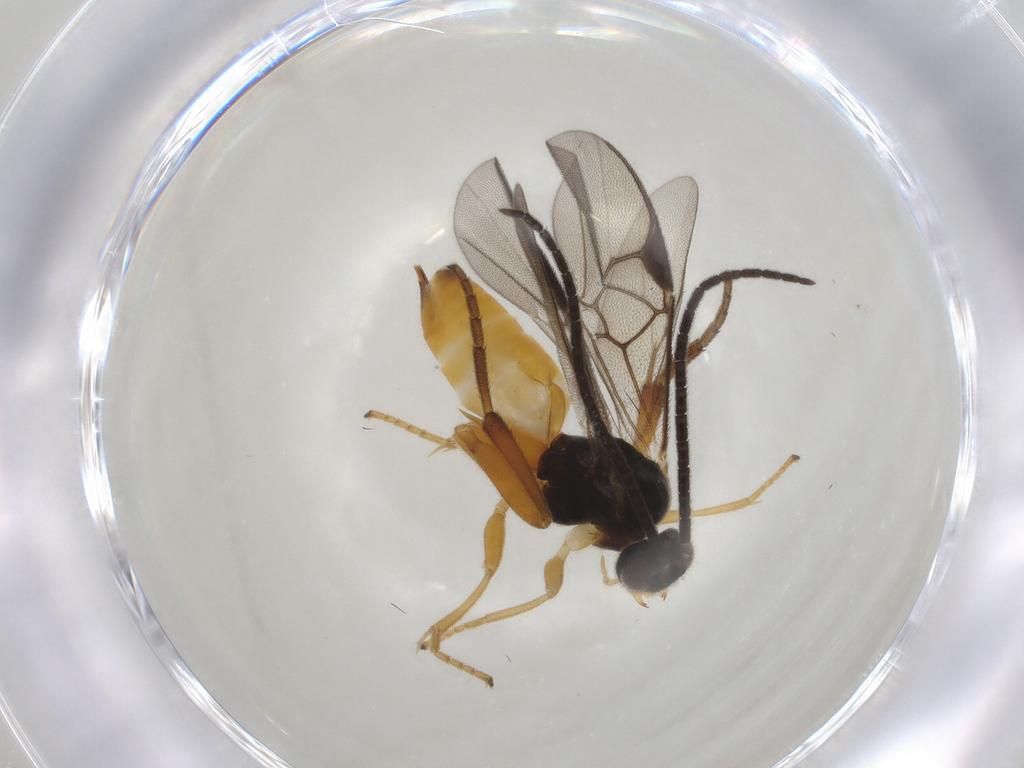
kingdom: Animalia
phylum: Arthropoda
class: Insecta
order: Hymenoptera
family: Braconidae
